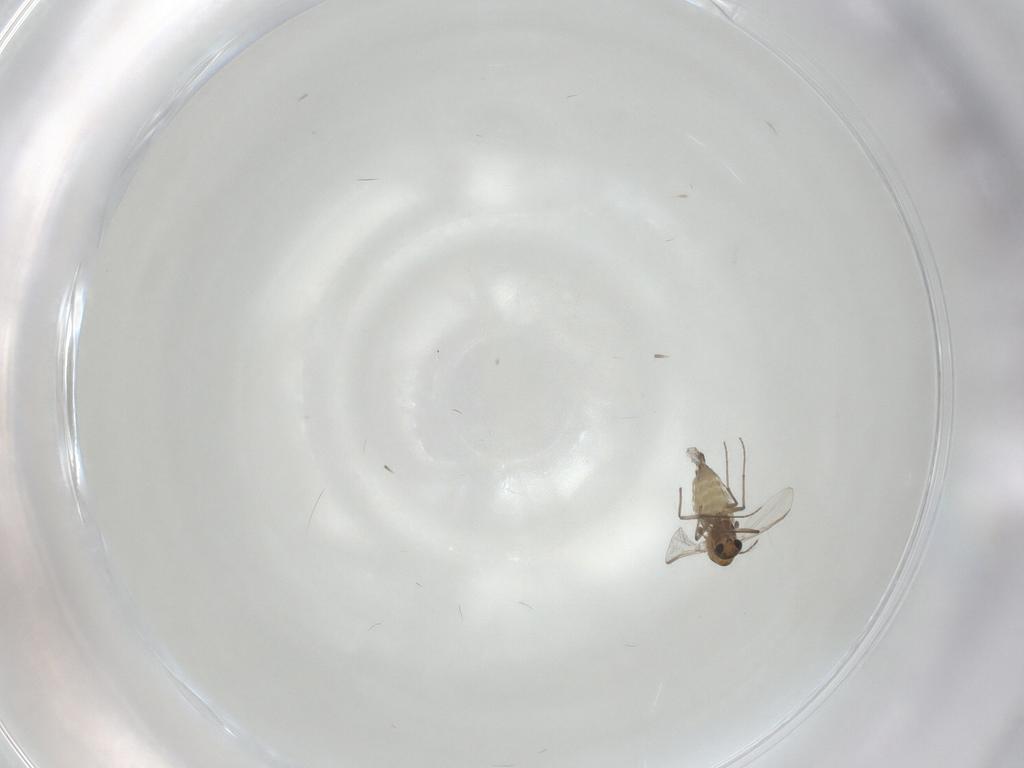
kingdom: Animalia
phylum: Arthropoda
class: Insecta
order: Diptera
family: Chironomidae
